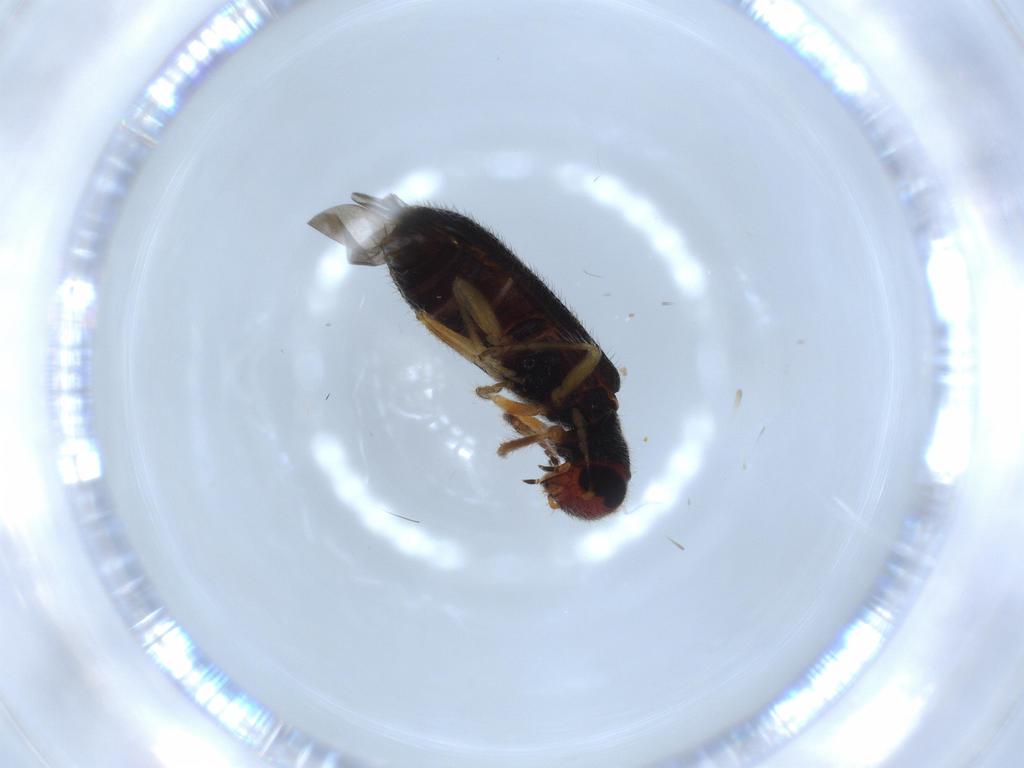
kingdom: Animalia
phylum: Arthropoda
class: Insecta
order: Coleoptera
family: Cleridae
